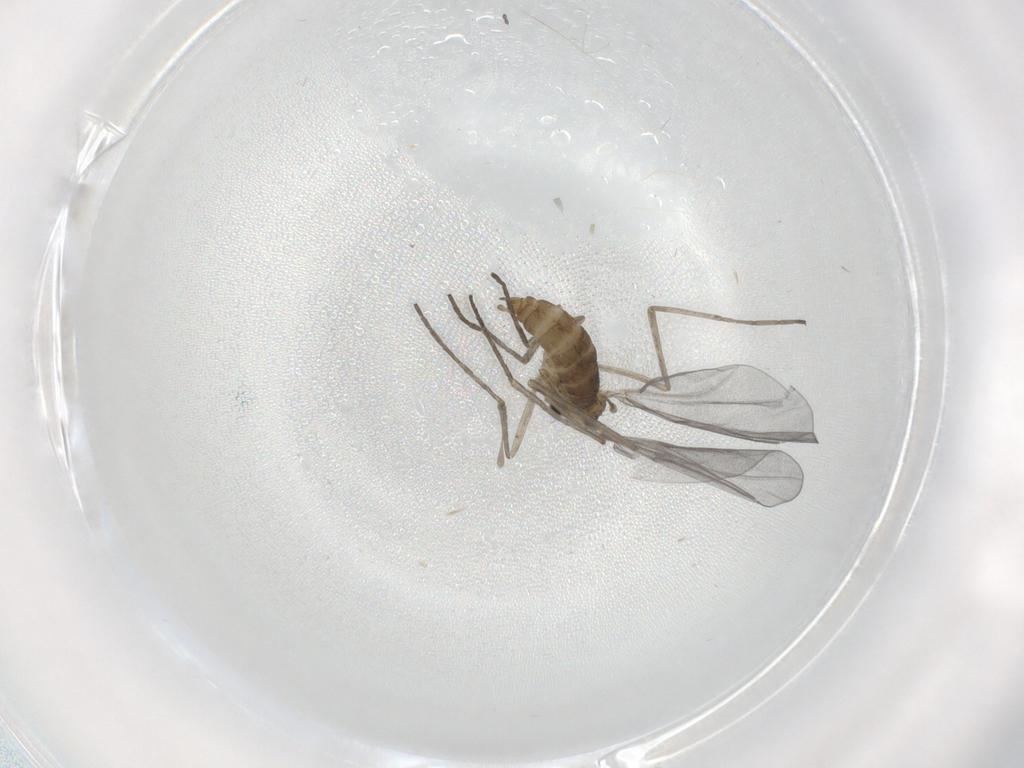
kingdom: Animalia
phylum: Arthropoda
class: Insecta
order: Diptera
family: Cecidomyiidae
